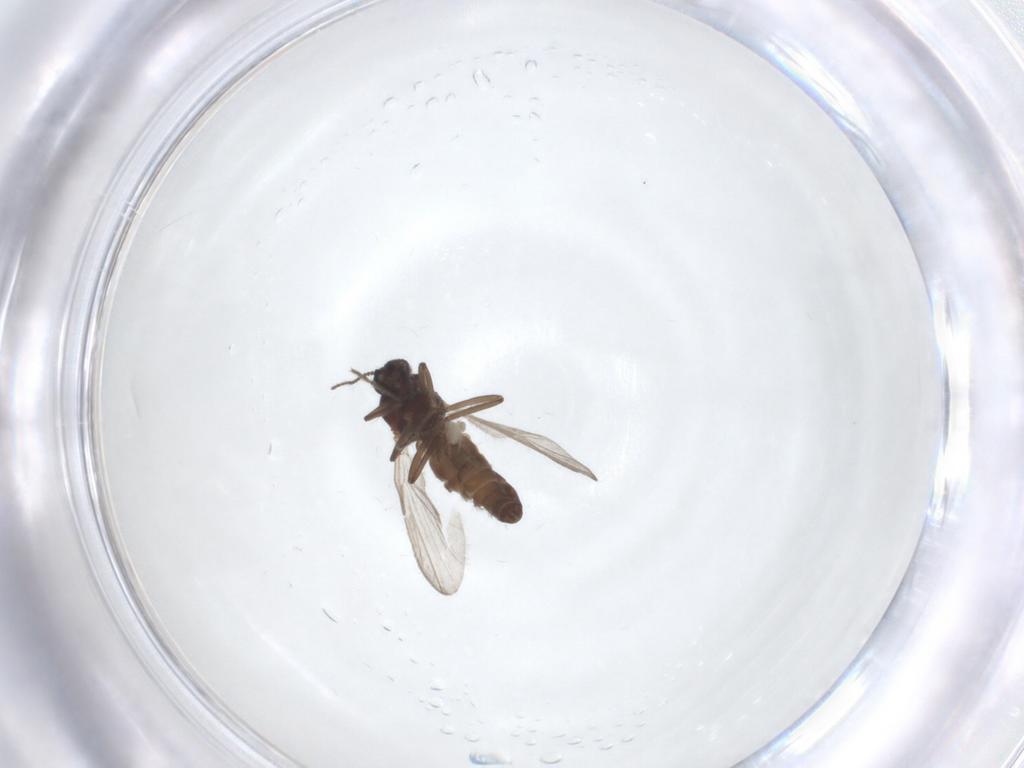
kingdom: Animalia
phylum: Arthropoda
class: Insecta
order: Diptera
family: Ceratopogonidae
